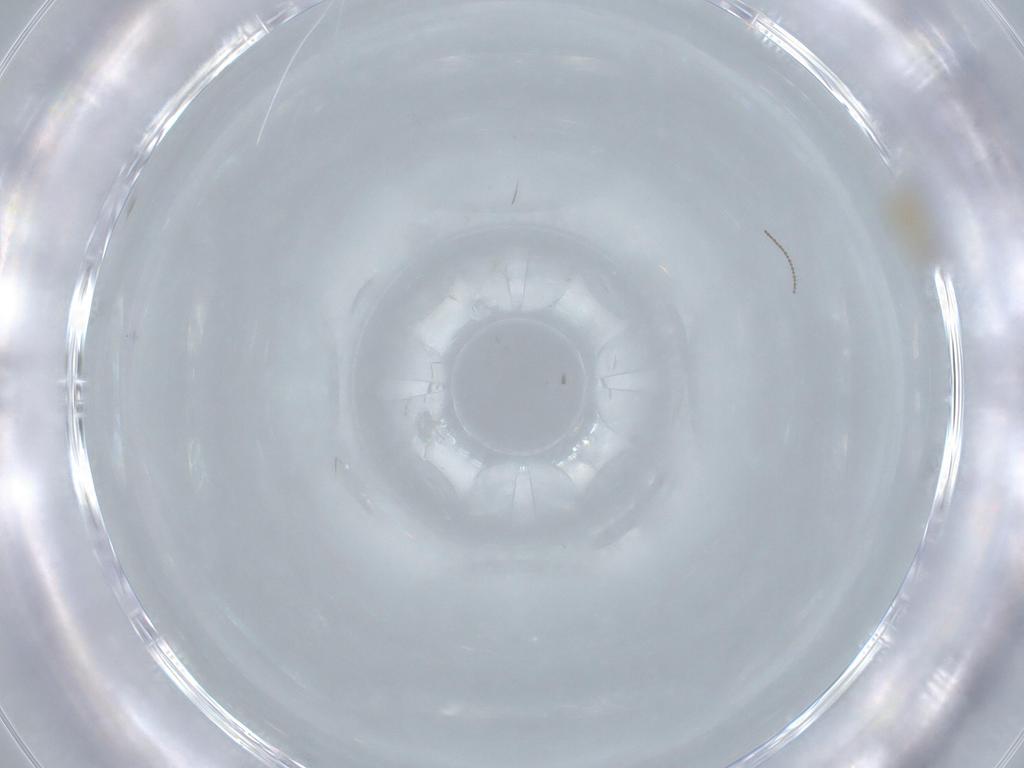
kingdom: Animalia
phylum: Arthropoda
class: Insecta
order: Diptera
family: Cecidomyiidae
